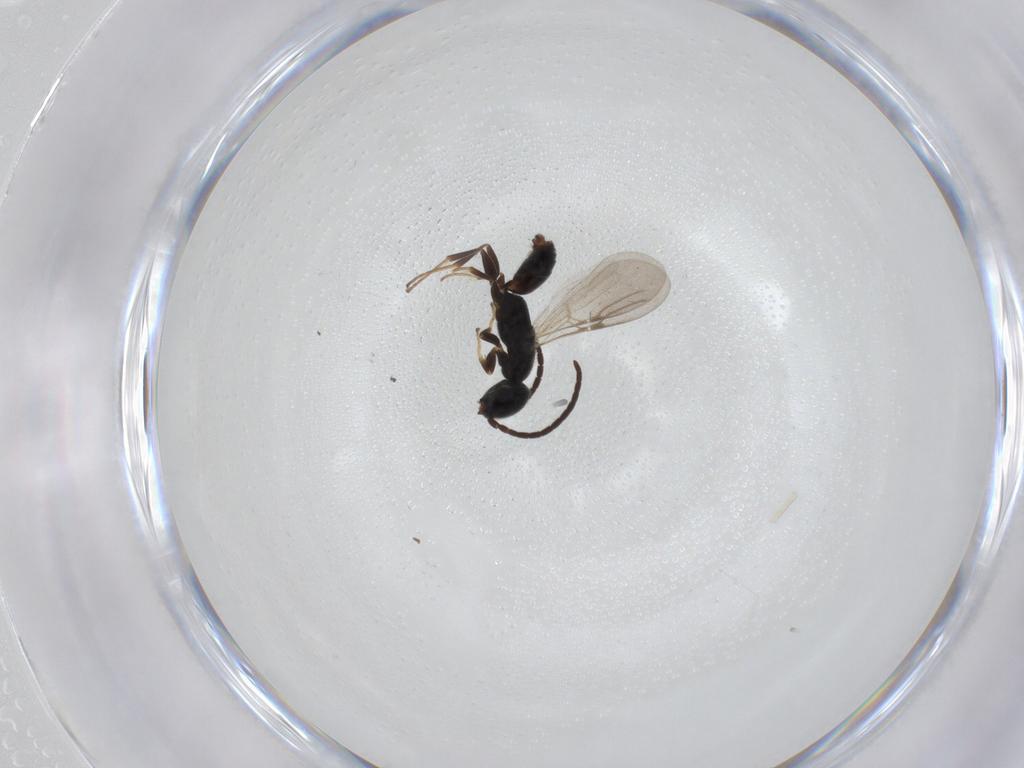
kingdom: Animalia
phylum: Arthropoda
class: Insecta
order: Hymenoptera
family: Bethylidae
